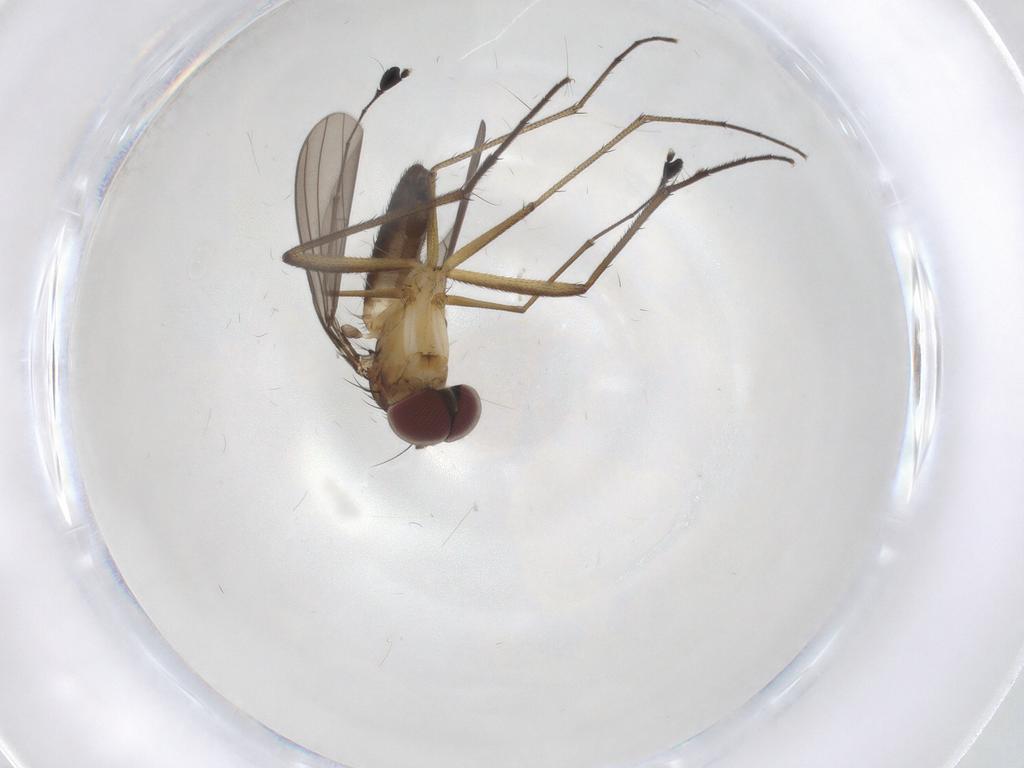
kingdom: Animalia
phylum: Arthropoda
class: Insecta
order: Diptera
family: Dolichopodidae
